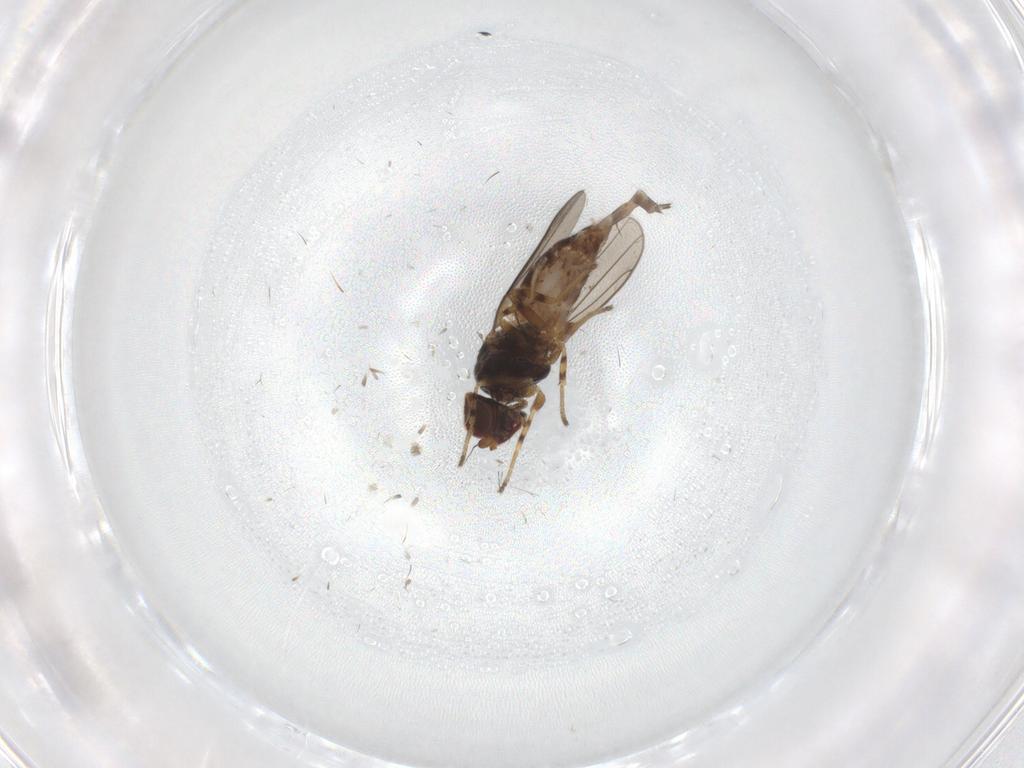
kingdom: Animalia
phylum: Arthropoda
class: Insecta
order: Diptera
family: Chloropidae
